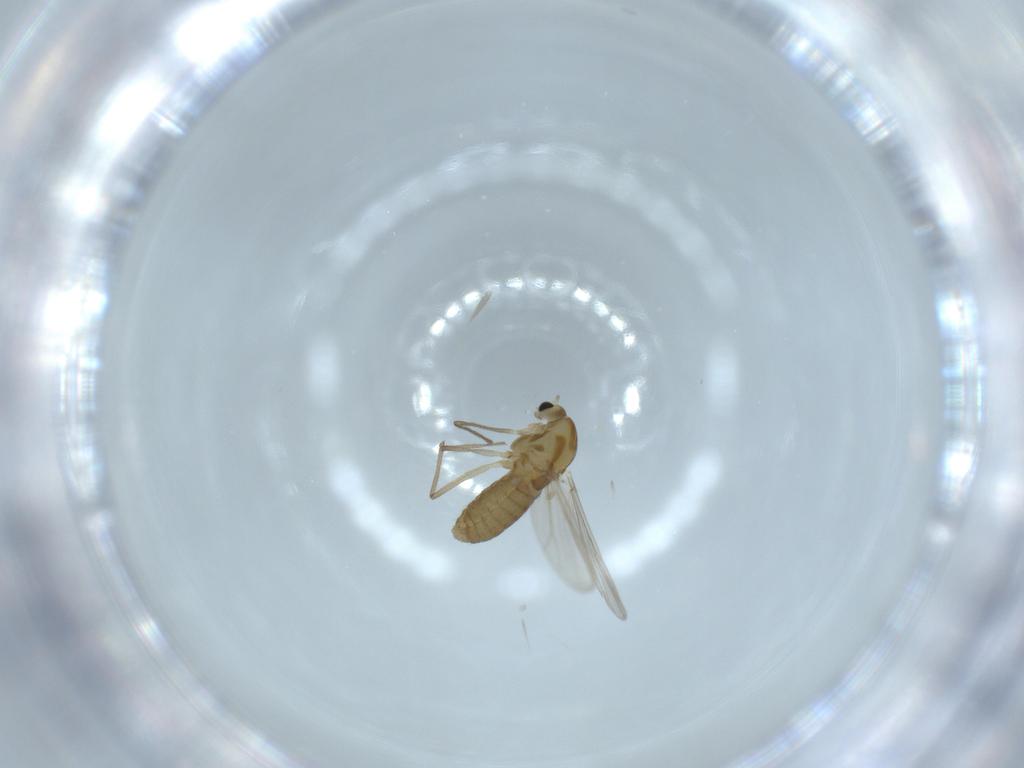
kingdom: Animalia
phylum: Arthropoda
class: Insecta
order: Diptera
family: Chironomidae
